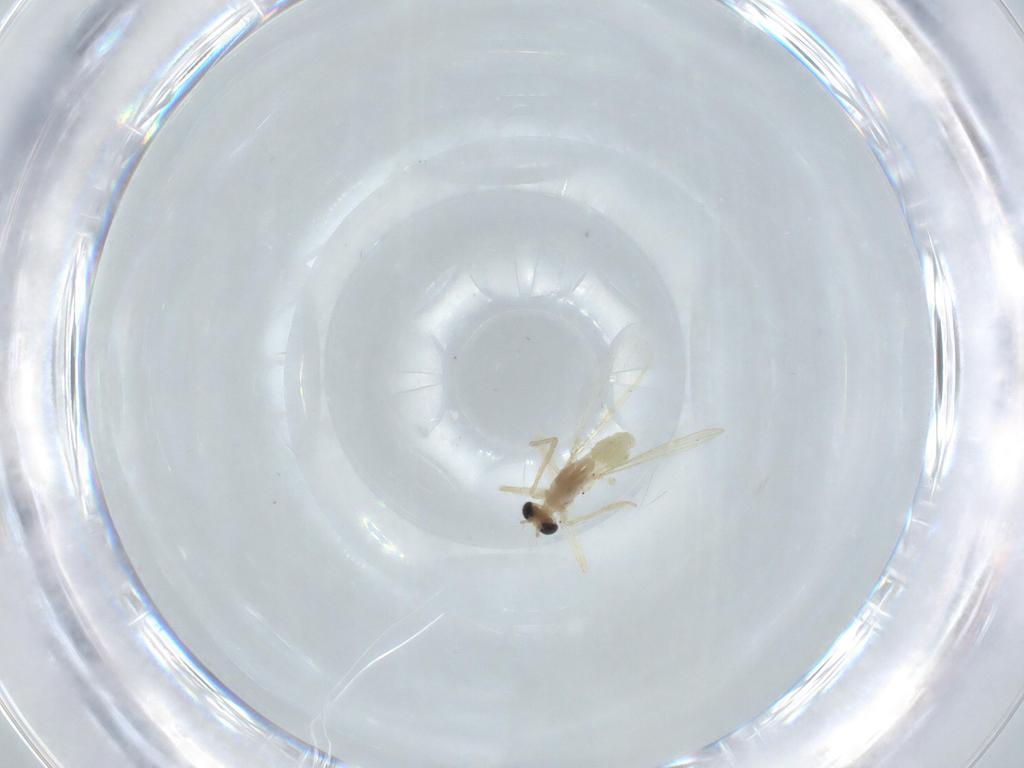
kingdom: Animalia
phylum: Arthropoda
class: Insecta
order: Diptera
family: Chironomidae
